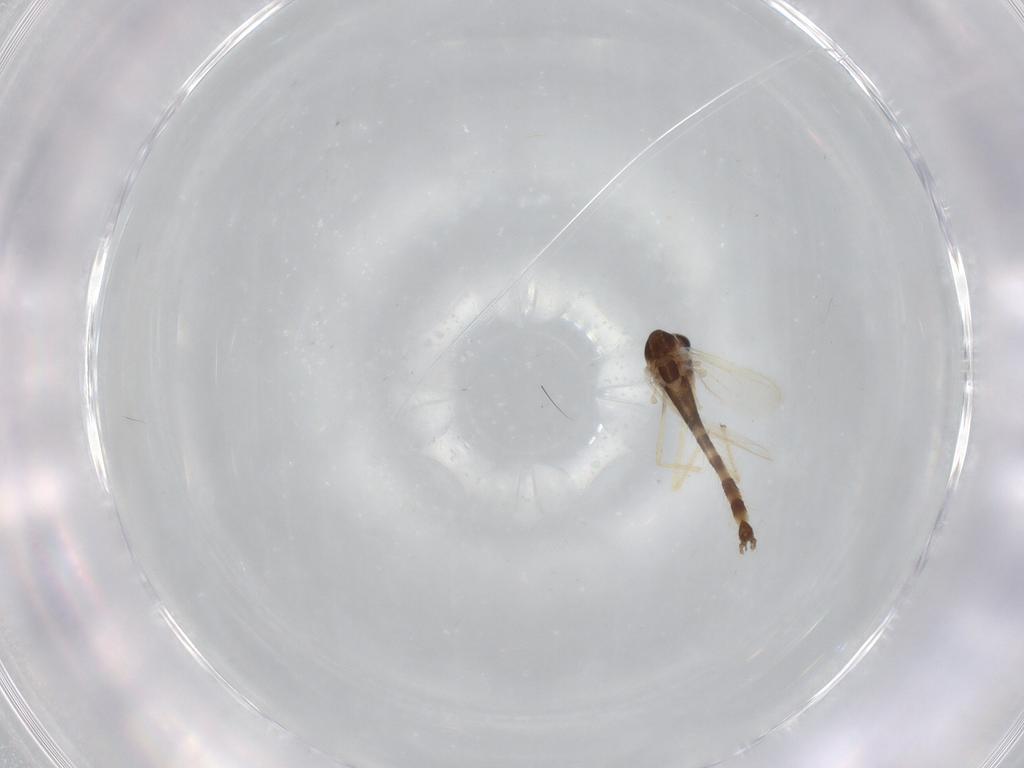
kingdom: Animalia
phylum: Arthropoda
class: Insecta
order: Diptera
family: Chironomidae
